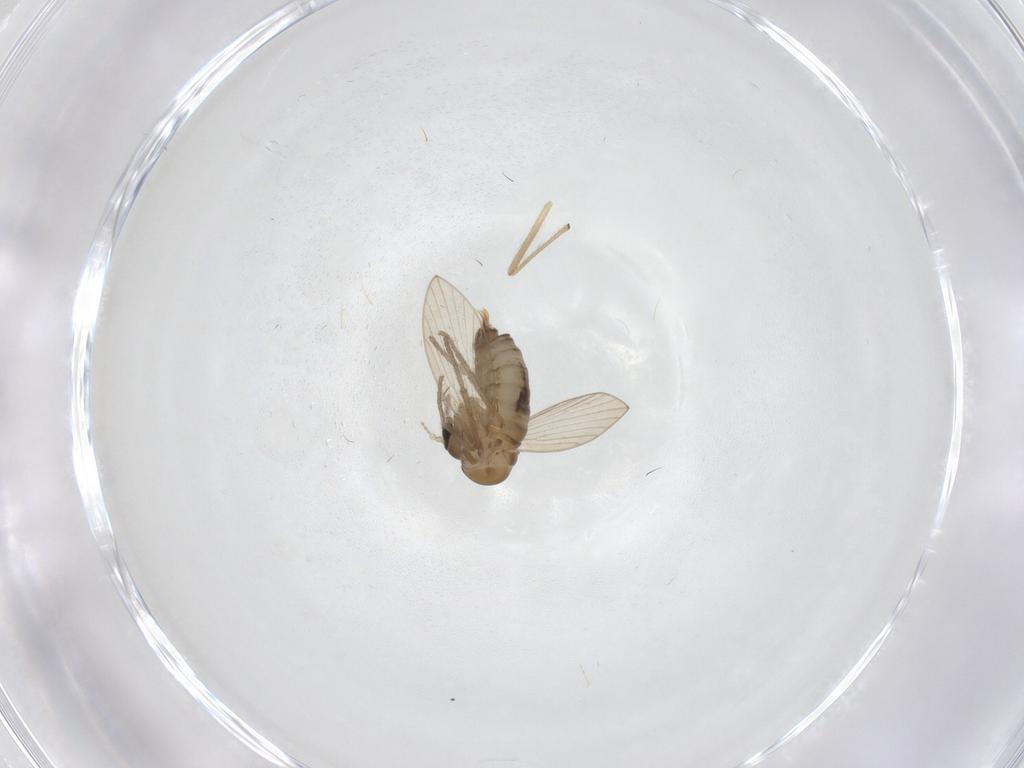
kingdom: Animalia
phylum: Arthropoda
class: Insecta
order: Diptera
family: Psychodidae
